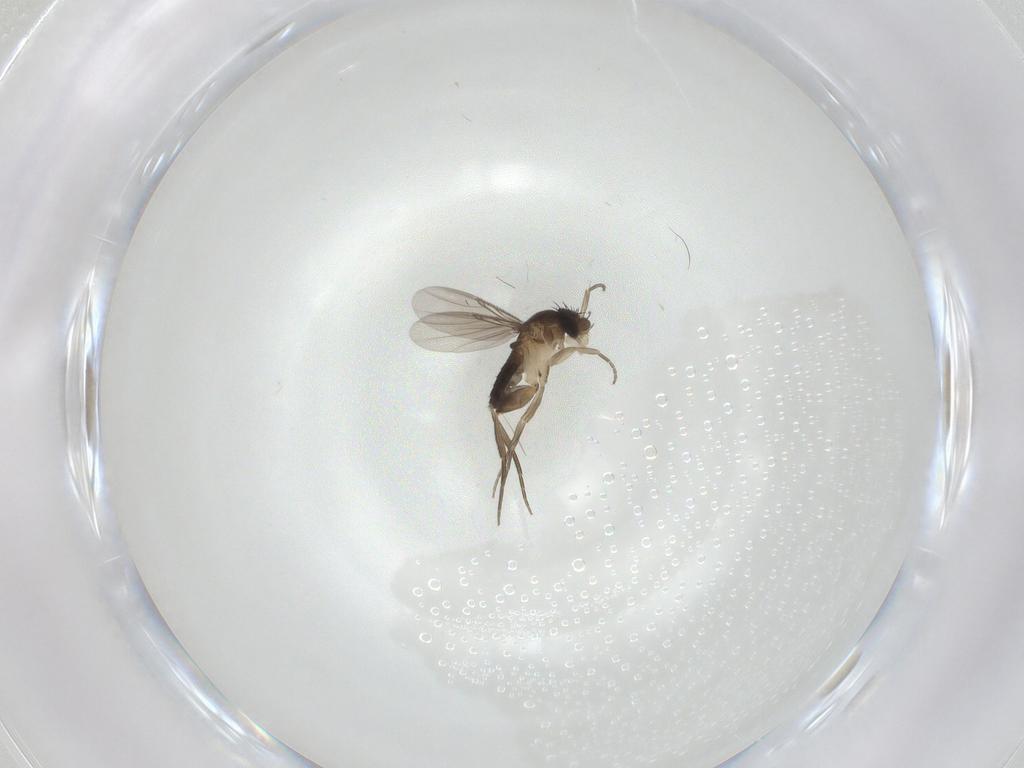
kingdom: Animalia
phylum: Arthropoda
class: Insecta
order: Diptera
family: Phoridae
